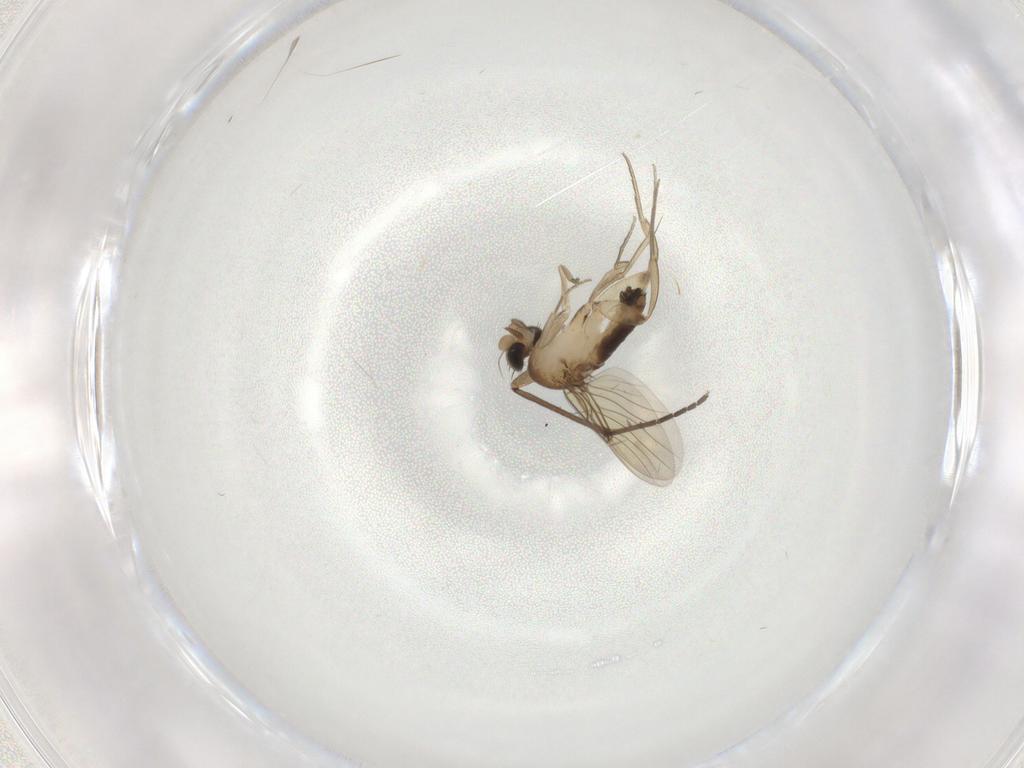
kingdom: Animalia
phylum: Arthropoda
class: Insecta
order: Diptera
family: Phoridae
